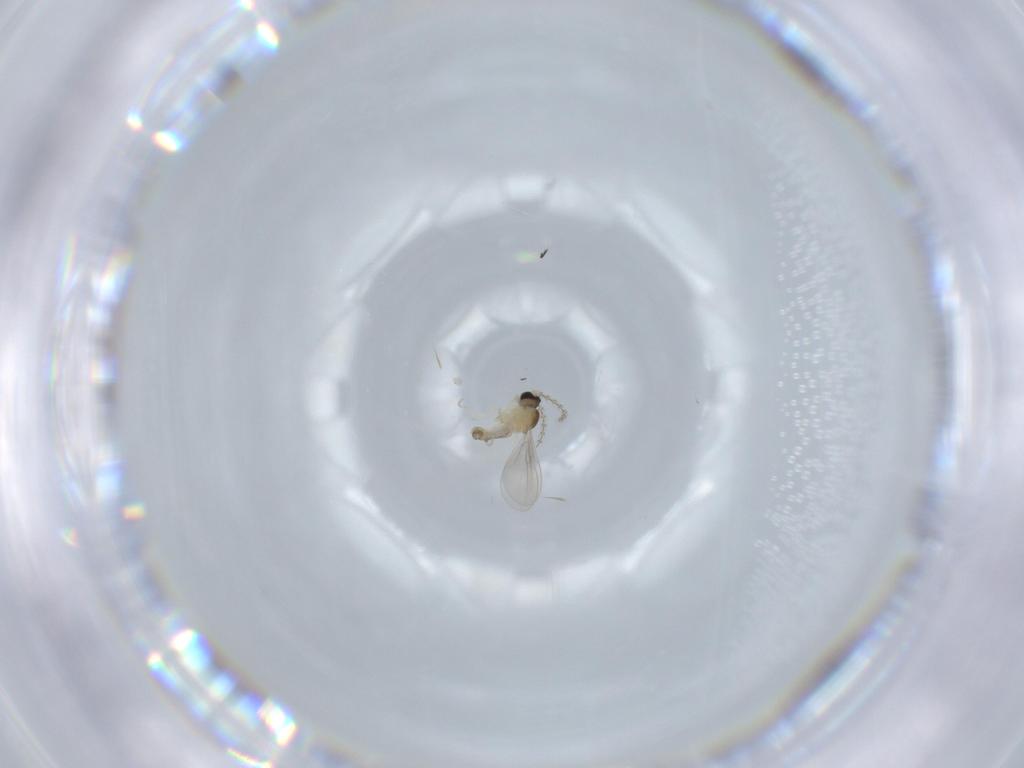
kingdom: Animalia
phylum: Arthropoda
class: Insecta
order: Diptera
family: Cecidomyiidae
